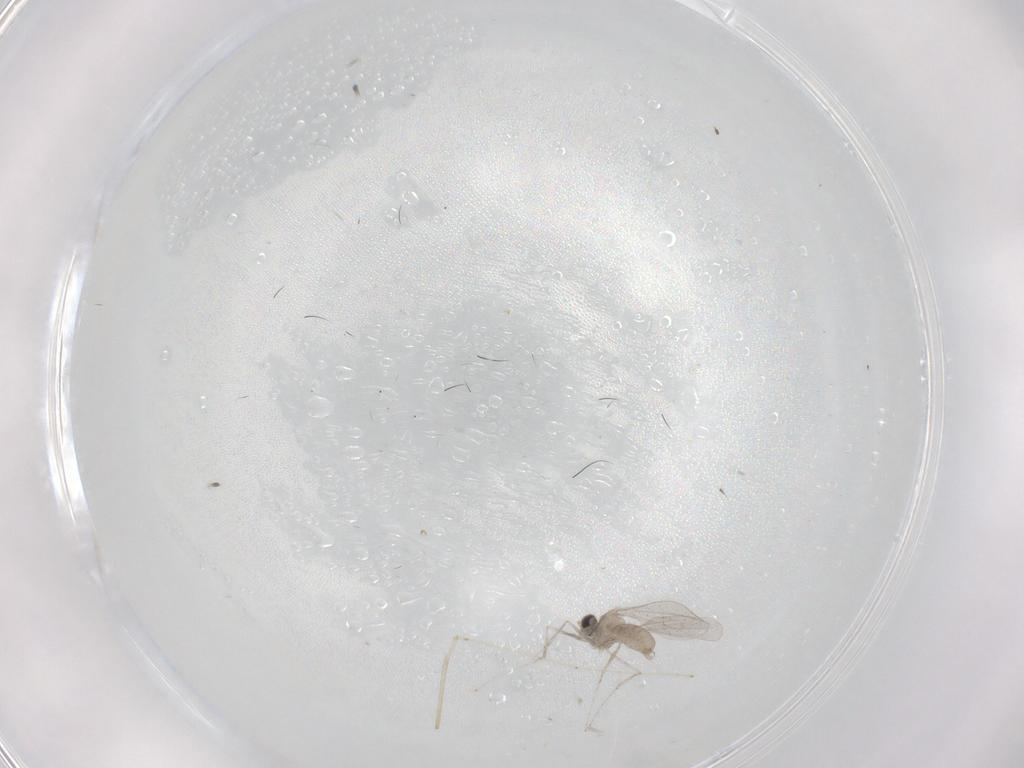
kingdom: Animalia
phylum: Arthropoda
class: Insecta
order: Diptera
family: Cecidomyiidae
